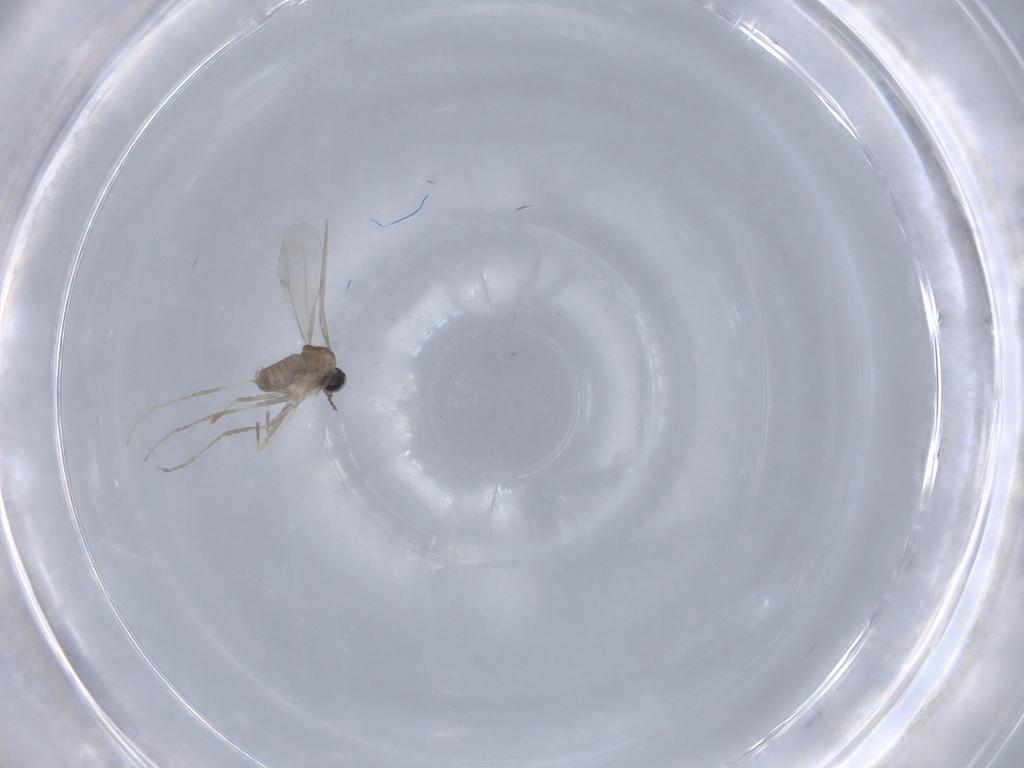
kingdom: Animalia
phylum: Arthropoda
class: Insecta
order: Diptera
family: Cecidomyiidae
